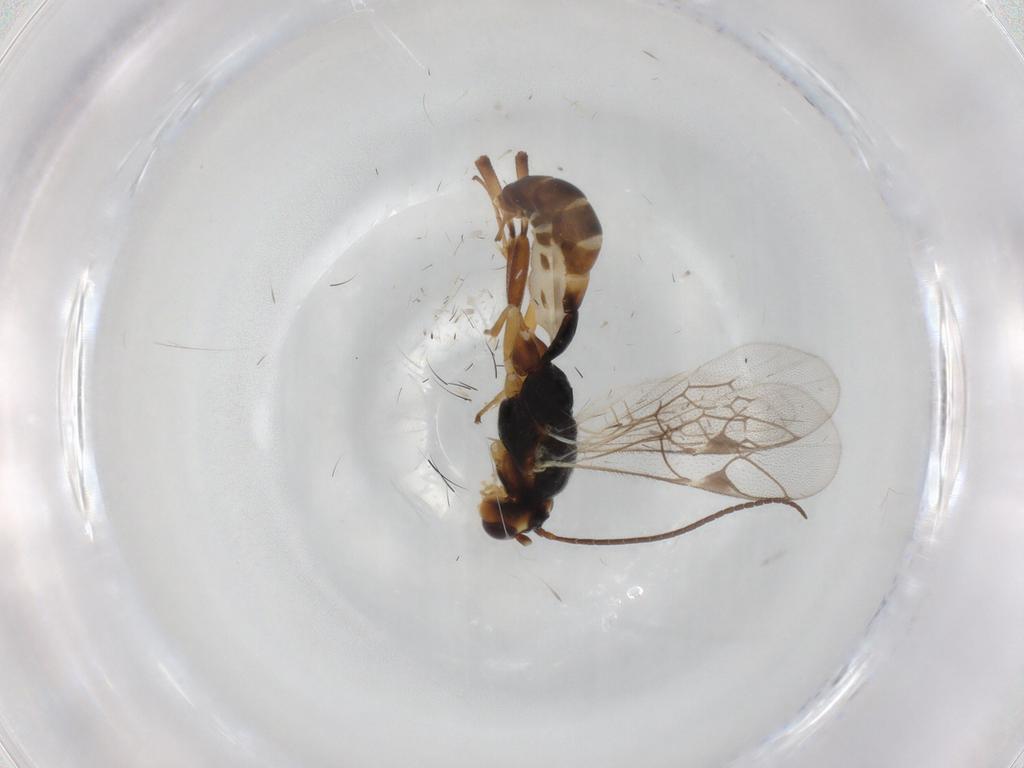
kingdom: Animalia
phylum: Arthropoda
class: Insecta
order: Hymenoptera
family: Ichneumonidae
